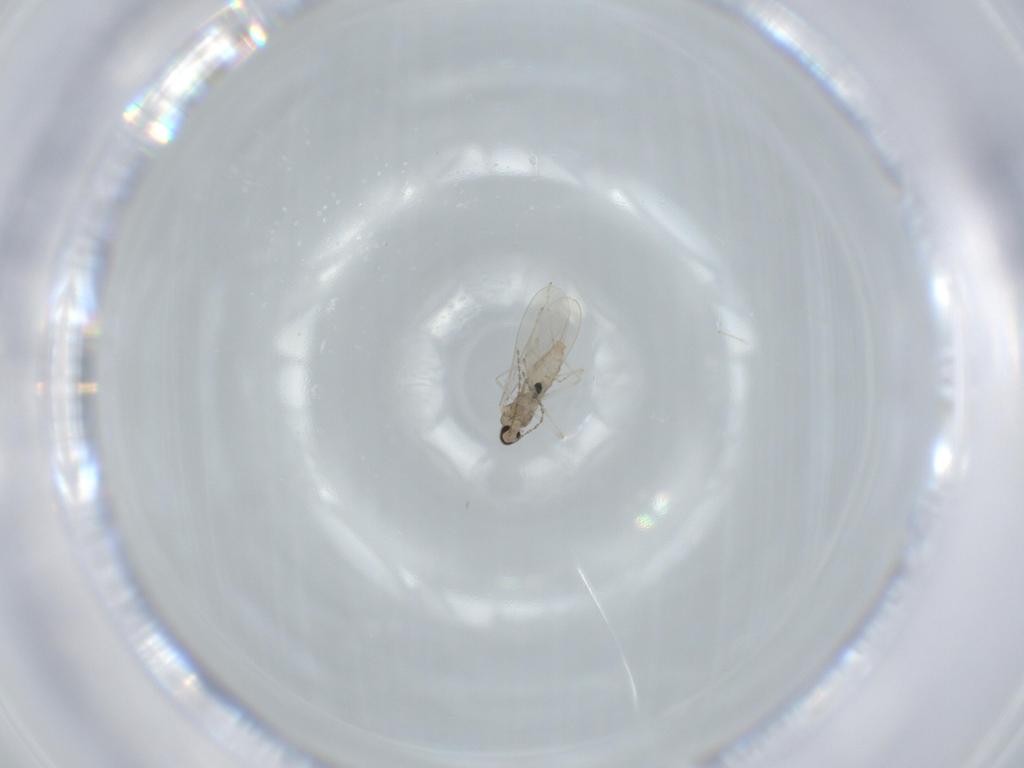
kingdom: Animalia
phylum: Arthropoda
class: Insecta
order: Diptera
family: Cecidomyiidae
